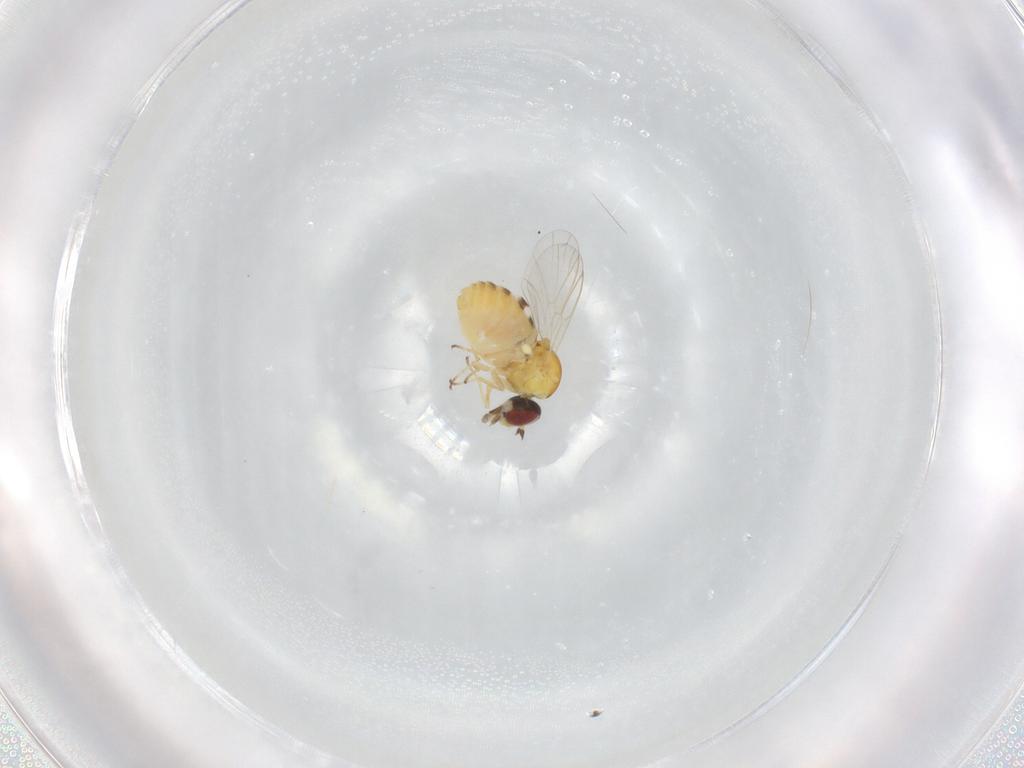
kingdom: Animalia
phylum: Arthropoda
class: Insecta
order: Diptera
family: Bombyliidae
